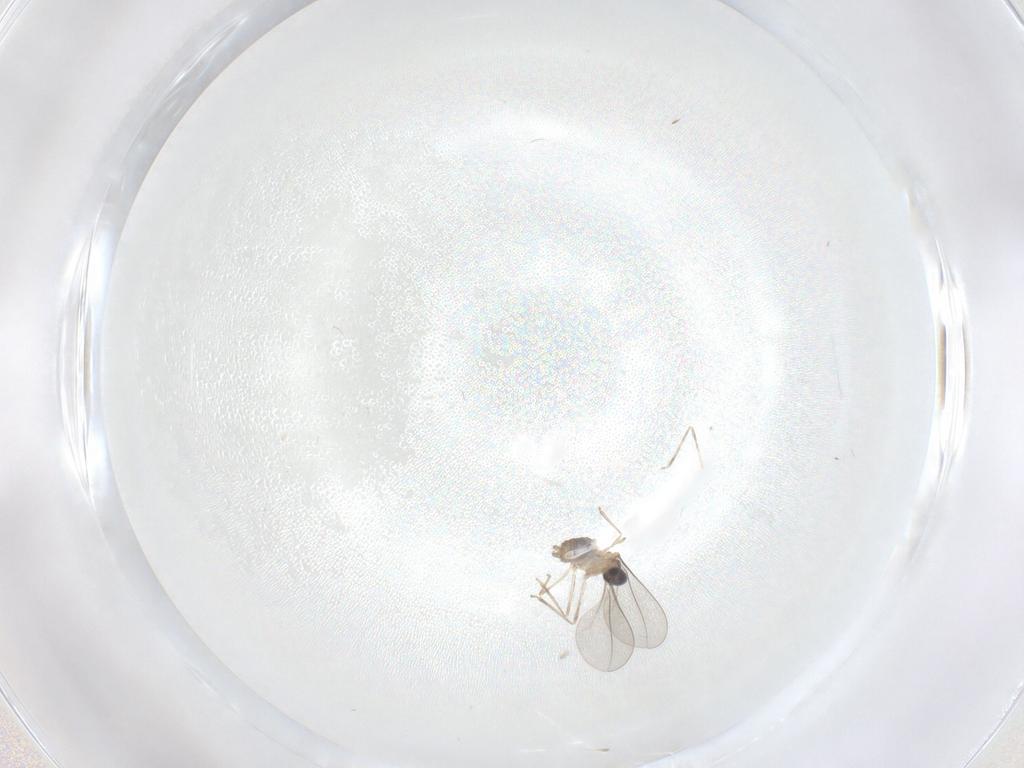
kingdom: Animalia
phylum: Arthropoda
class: Insecta
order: Diptera
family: Cecidomyiidae
